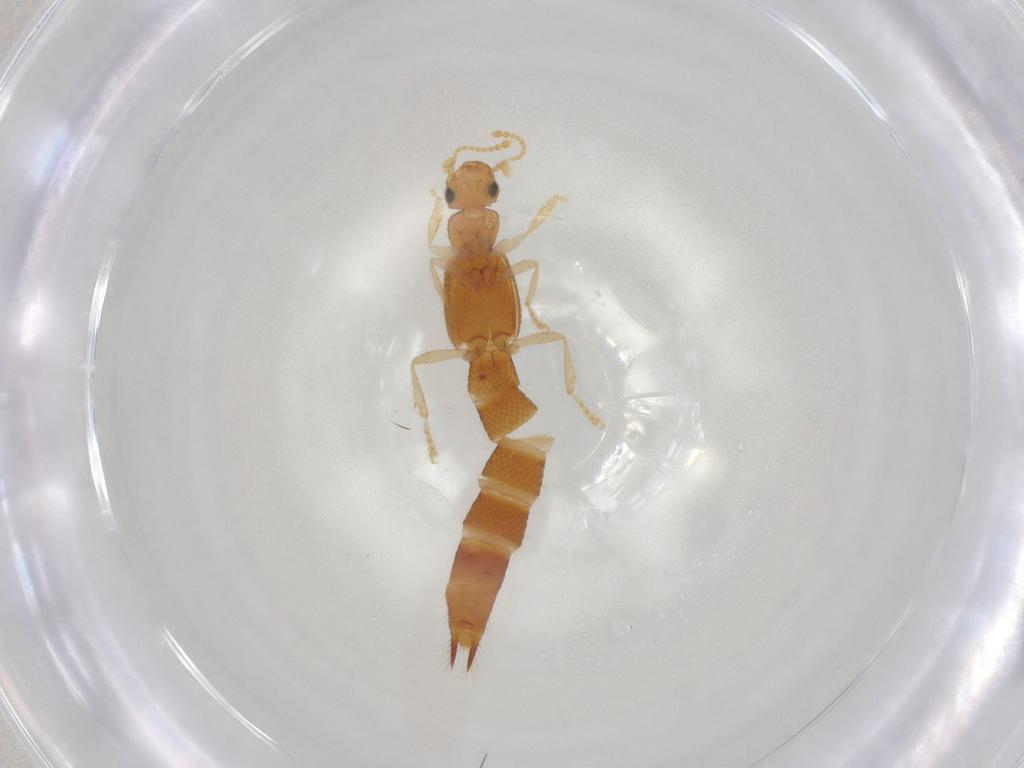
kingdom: Animalia
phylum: Arthropoda
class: Insecta
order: Coleoptera
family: Staphylinidae
